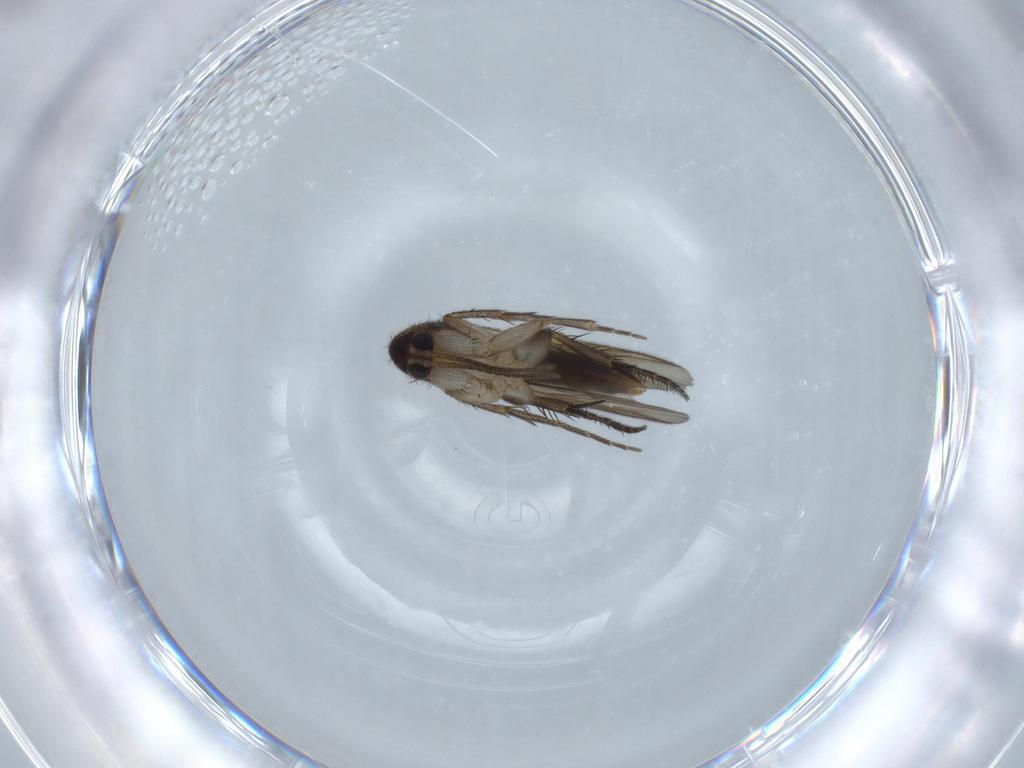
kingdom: Animalia
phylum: Arthropoda
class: Insecta
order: Diptera
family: Mycetophilidae
